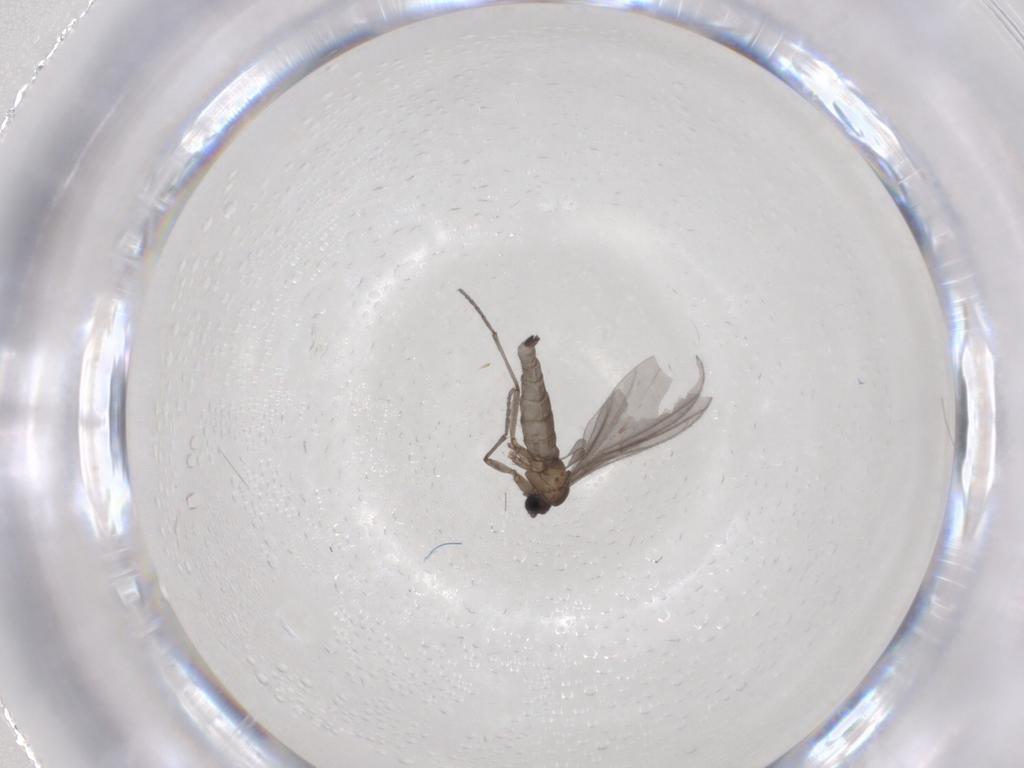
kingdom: Animalia
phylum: Arthropoda
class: Insecta
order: Diptera
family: Sciaridae
